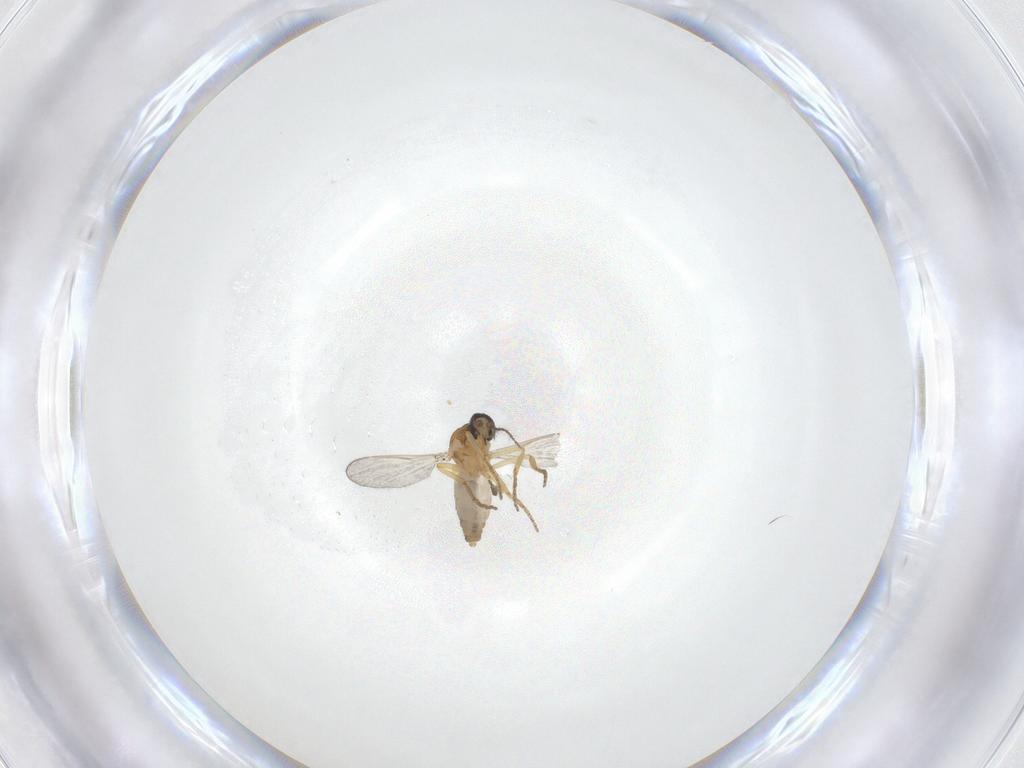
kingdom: Animalia
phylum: Arthropoda
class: Insecta
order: Diptera
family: Ceratopogonidae
